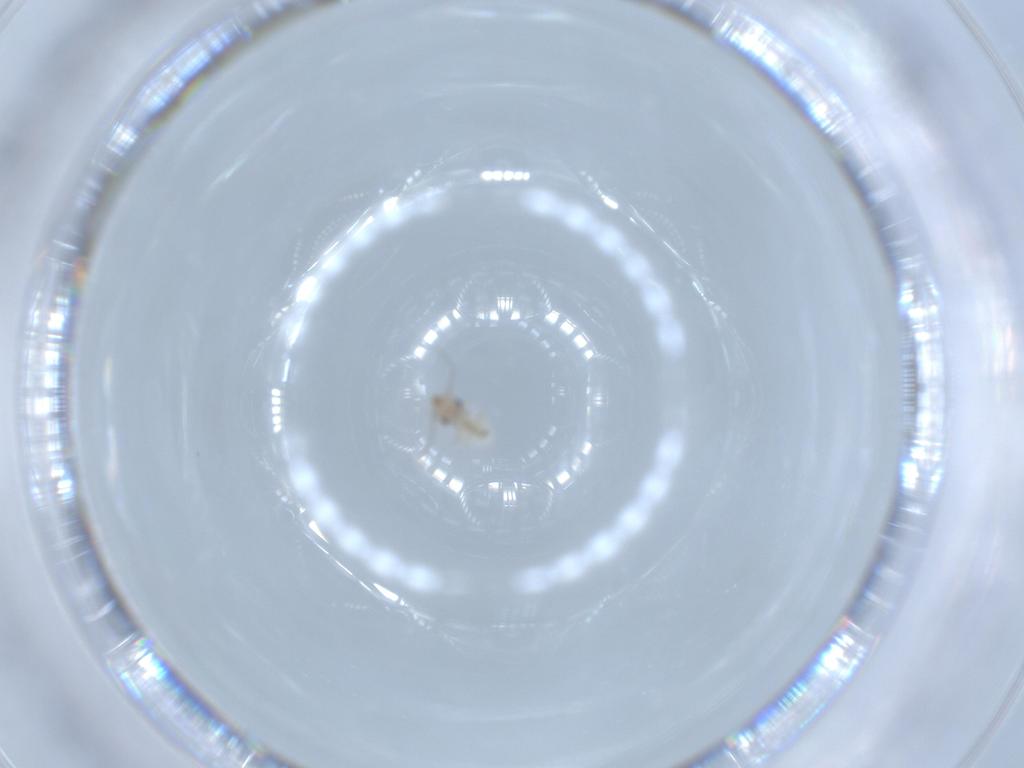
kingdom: Animalia
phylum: Arthropoda
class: Insecta
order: Psocodea
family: Lepidopsocidae
